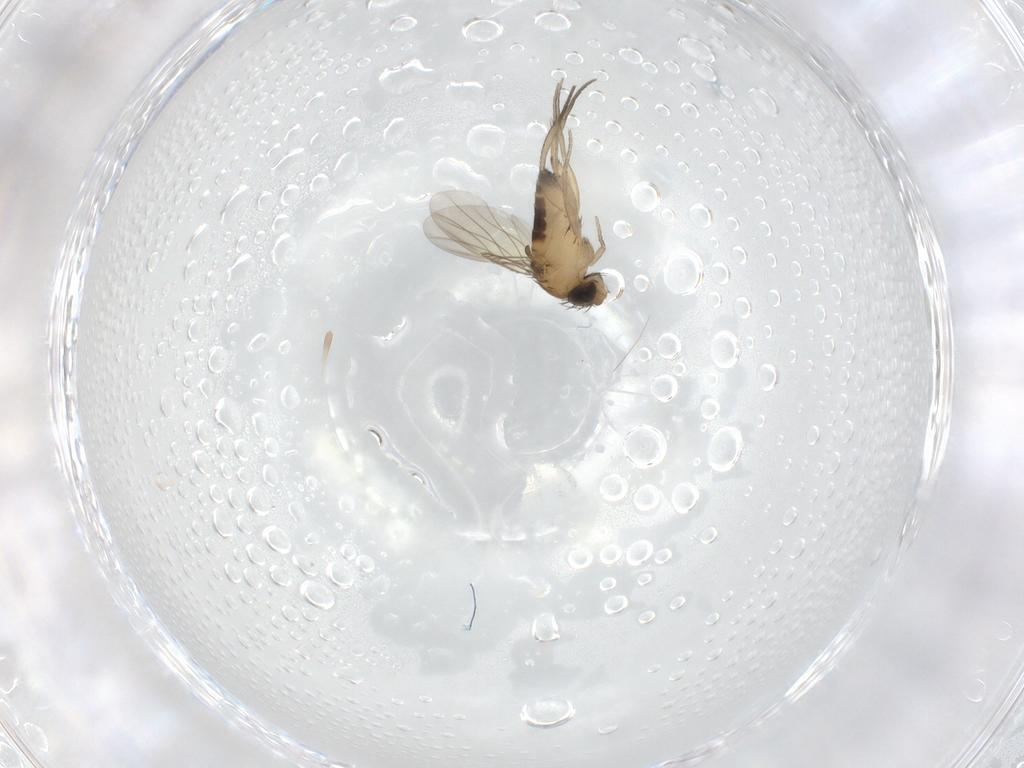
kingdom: Animalia
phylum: Arthropoda
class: Insecta
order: Diptera
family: Phoridae
